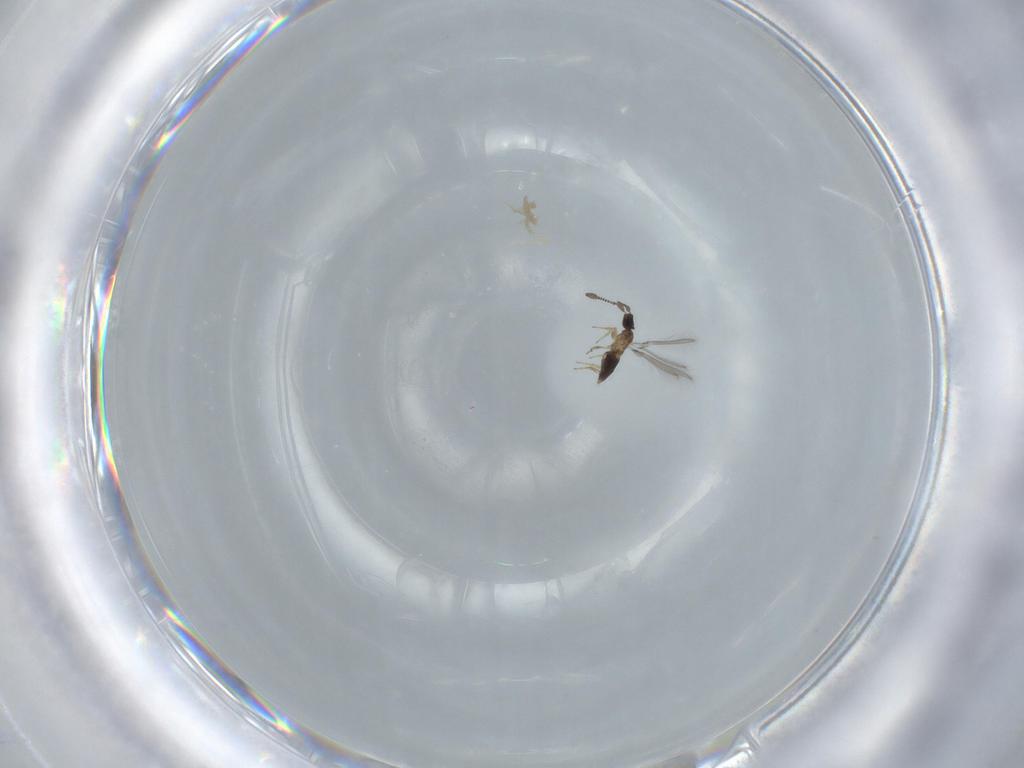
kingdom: Animalia
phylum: Arthropoda
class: Insecta
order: Hymenoptera
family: Mymaridae
